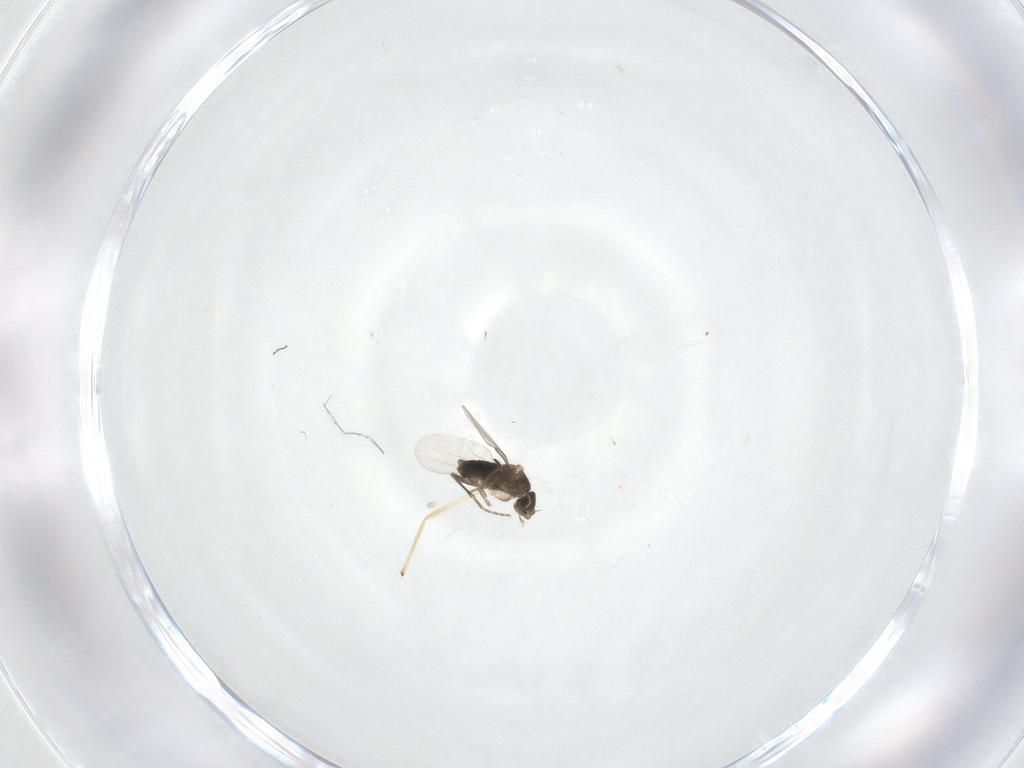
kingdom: Animalia
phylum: Arthropoda
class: Insecta
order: Diptera
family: Phoridae
